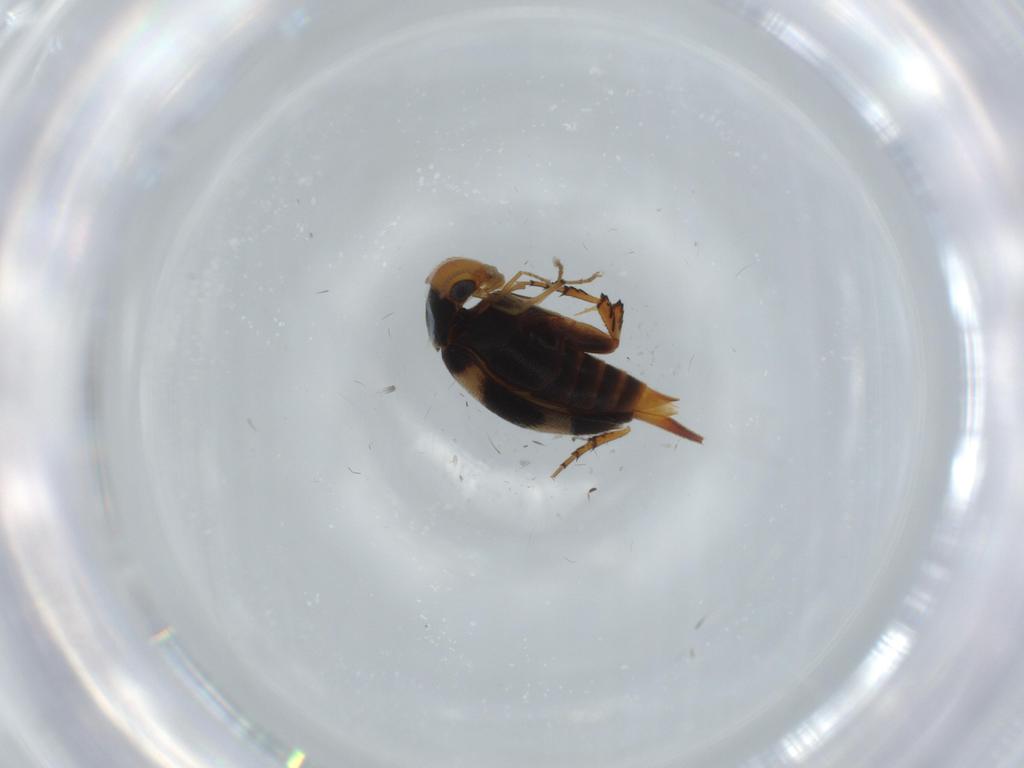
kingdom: Animalia
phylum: Arthropoda
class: Insecta
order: Coleoptera
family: Mordellidae
